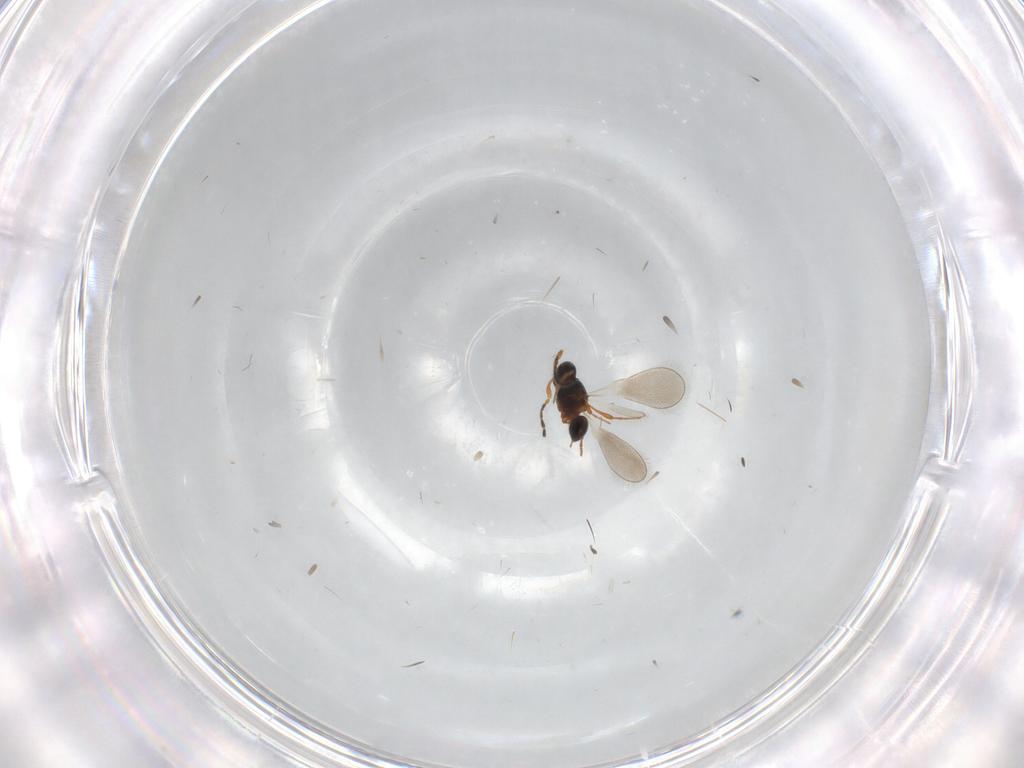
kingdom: Animalia
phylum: Arthropoda
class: Insecta
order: Hymenoptera
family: Platygastridae
